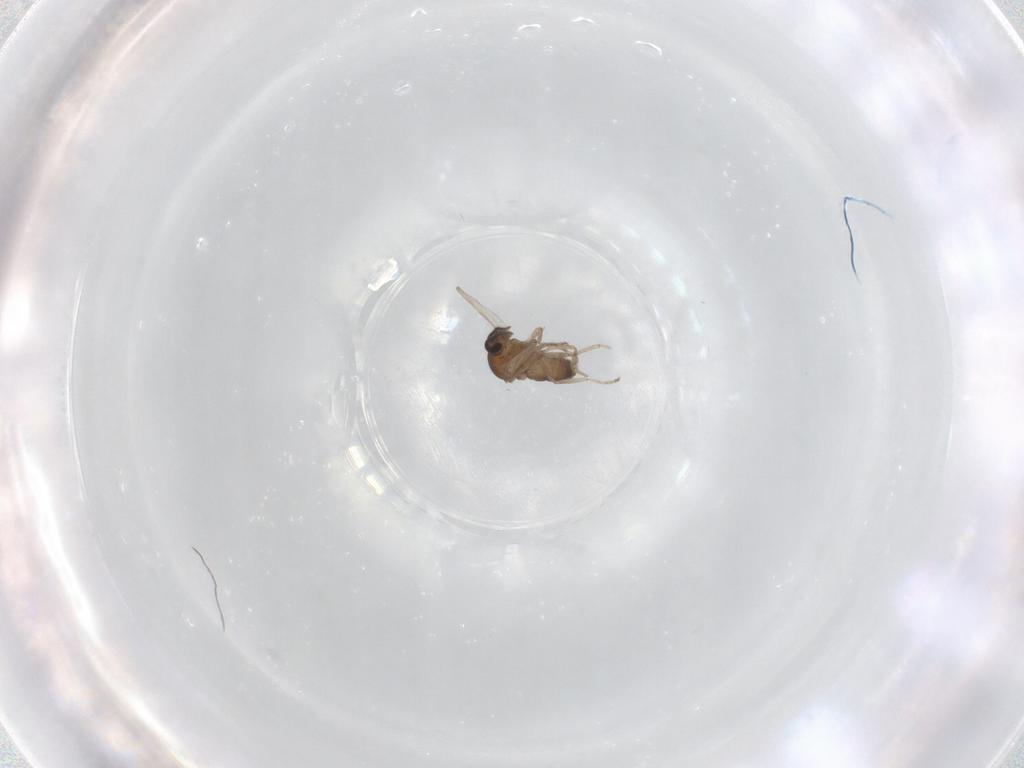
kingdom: Animalia
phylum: Arthropoda
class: Insecta
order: Diptera
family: Ceratopogonidae
